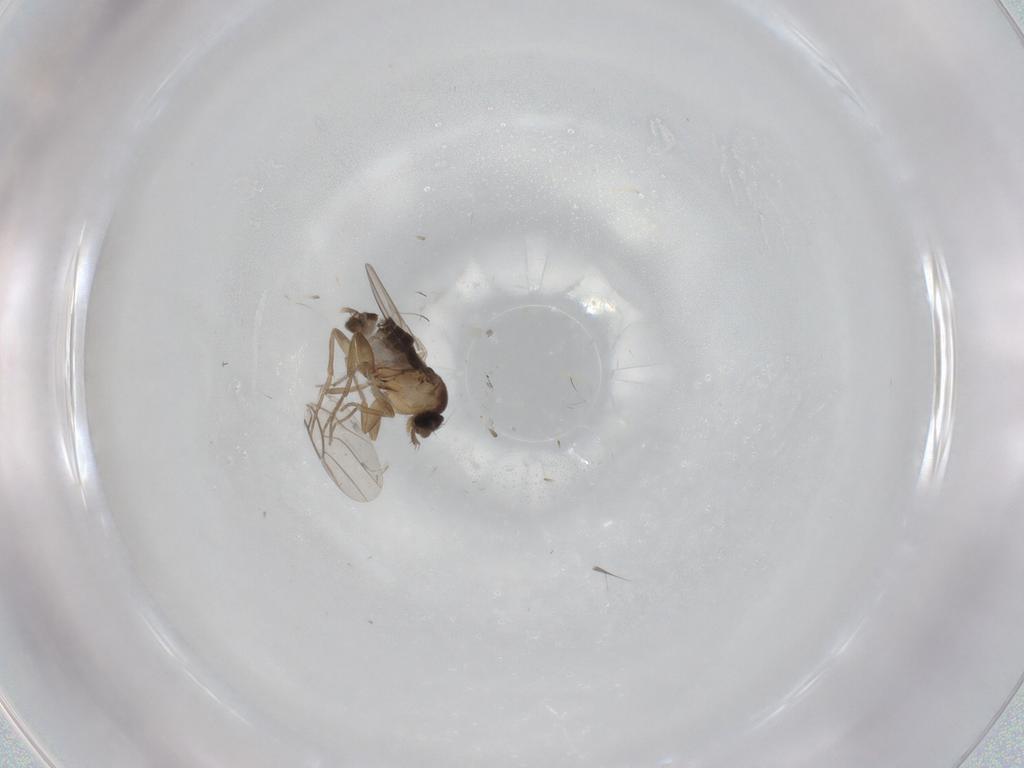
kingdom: Animalia
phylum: Arthropoda
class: Insecta
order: Diptera
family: Phoridae
